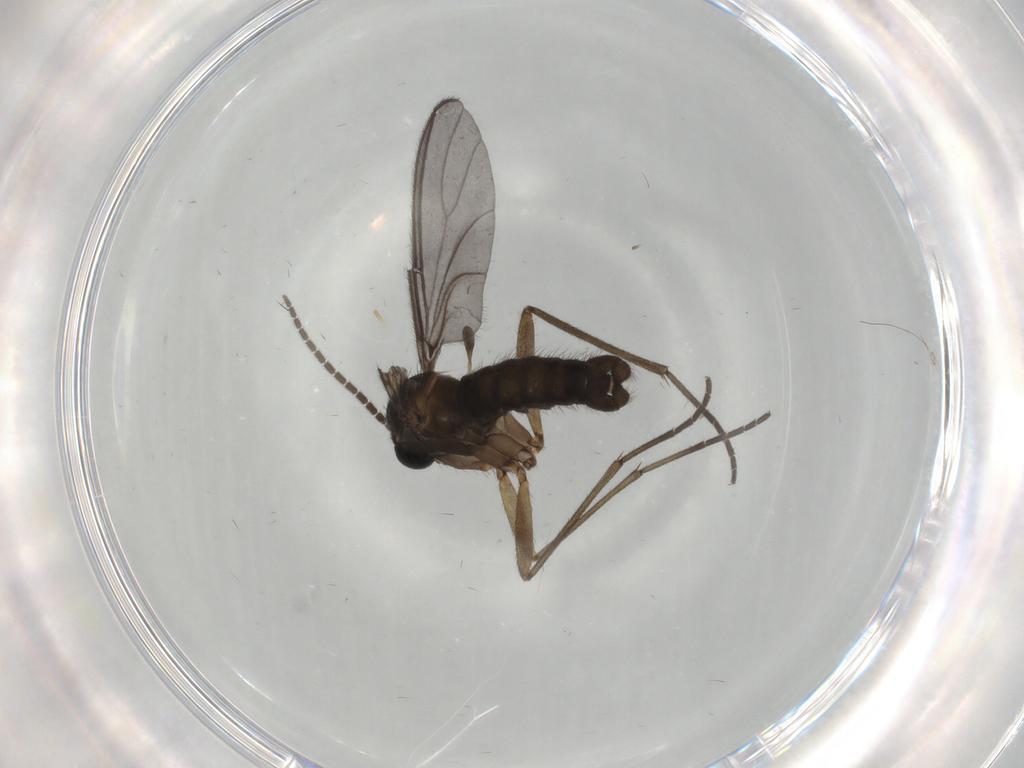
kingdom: Animalia
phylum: Arthropoda
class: Insecta
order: Diptera
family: Sciaridae
